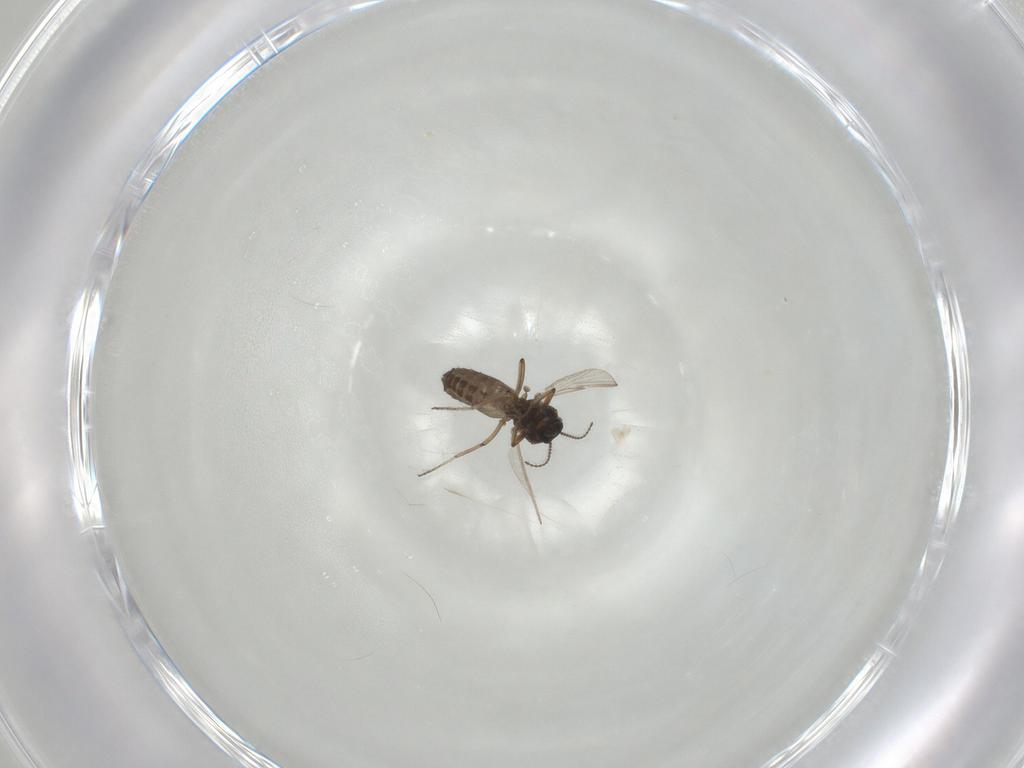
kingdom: Animalia
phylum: Arthropoda
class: Insecta
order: Diptera
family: Ceratopogonidae
